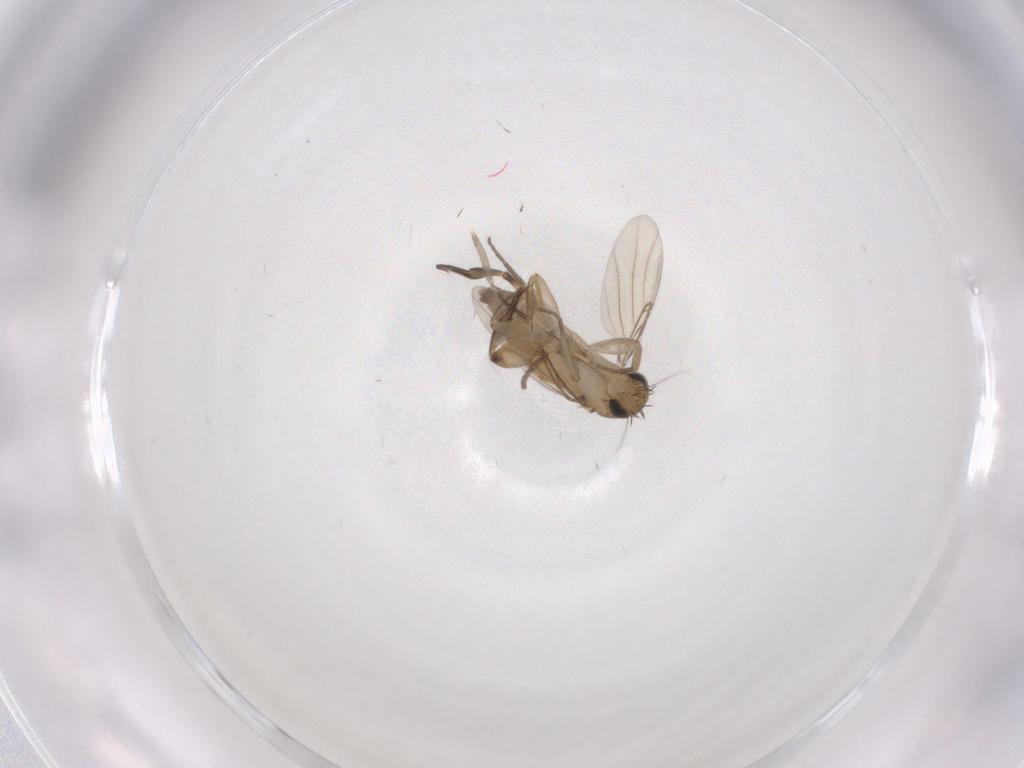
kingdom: Animalia
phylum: Arthropoda
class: Insecta
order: Diptera
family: Phoridae
